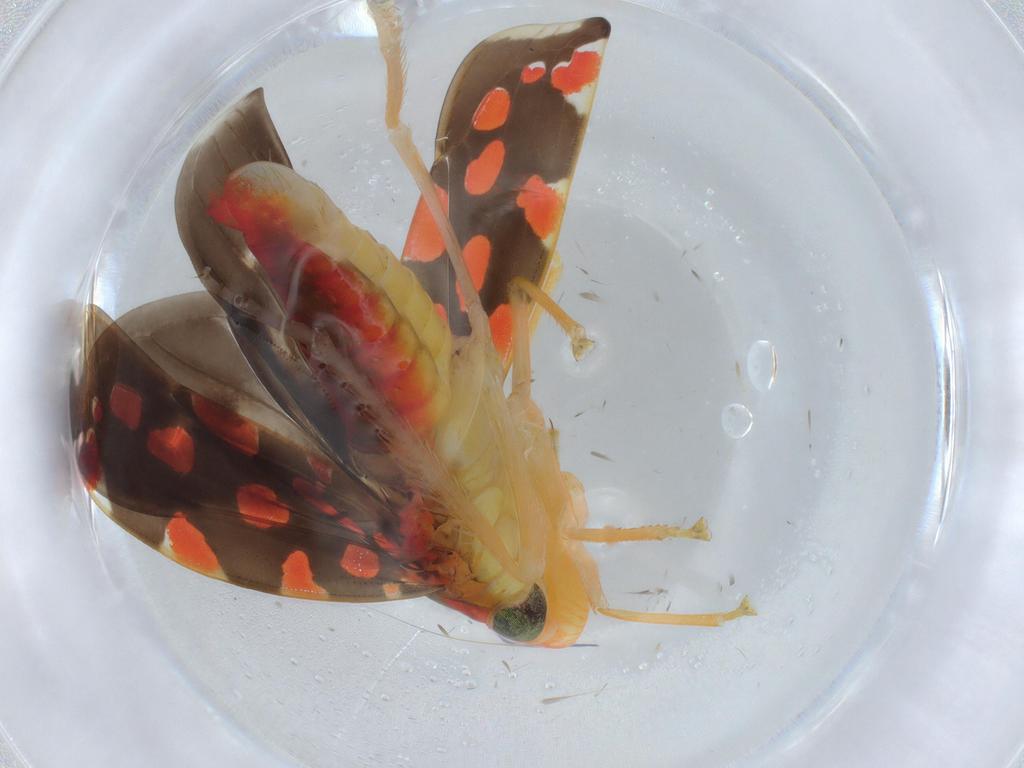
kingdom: Animalia
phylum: Arthropoda
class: Insecta
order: Hemiptera
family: Cicadellidae
